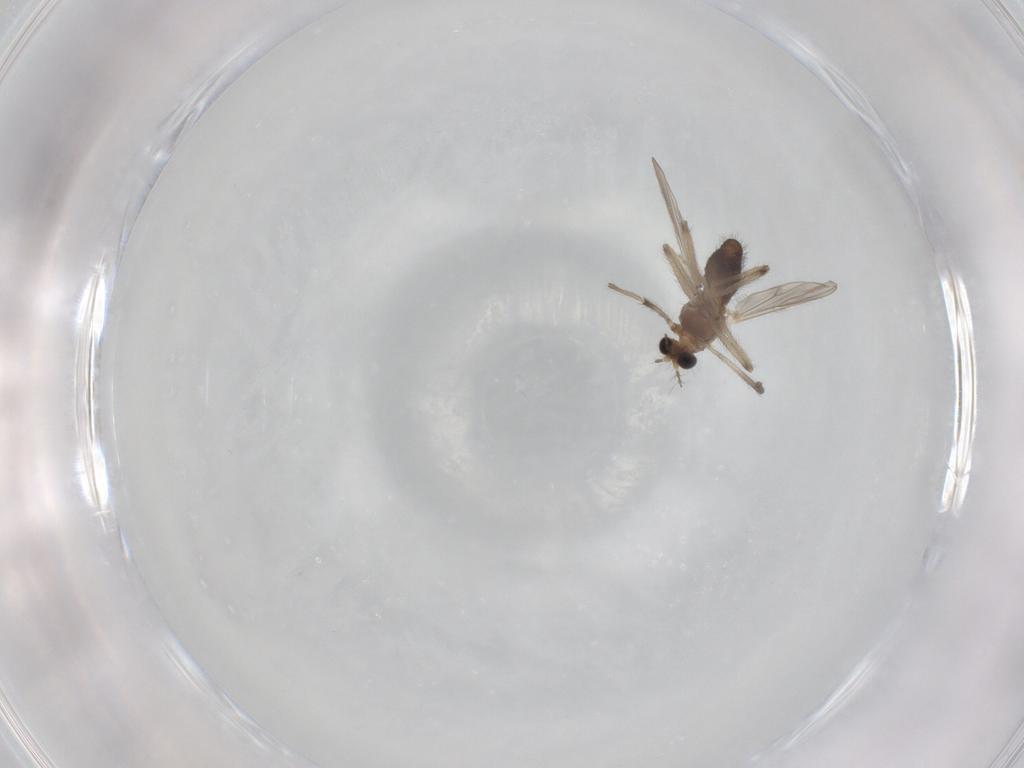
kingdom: Animalia
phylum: Arthropoda
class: Insecta
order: Diptera
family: Chironomidae
